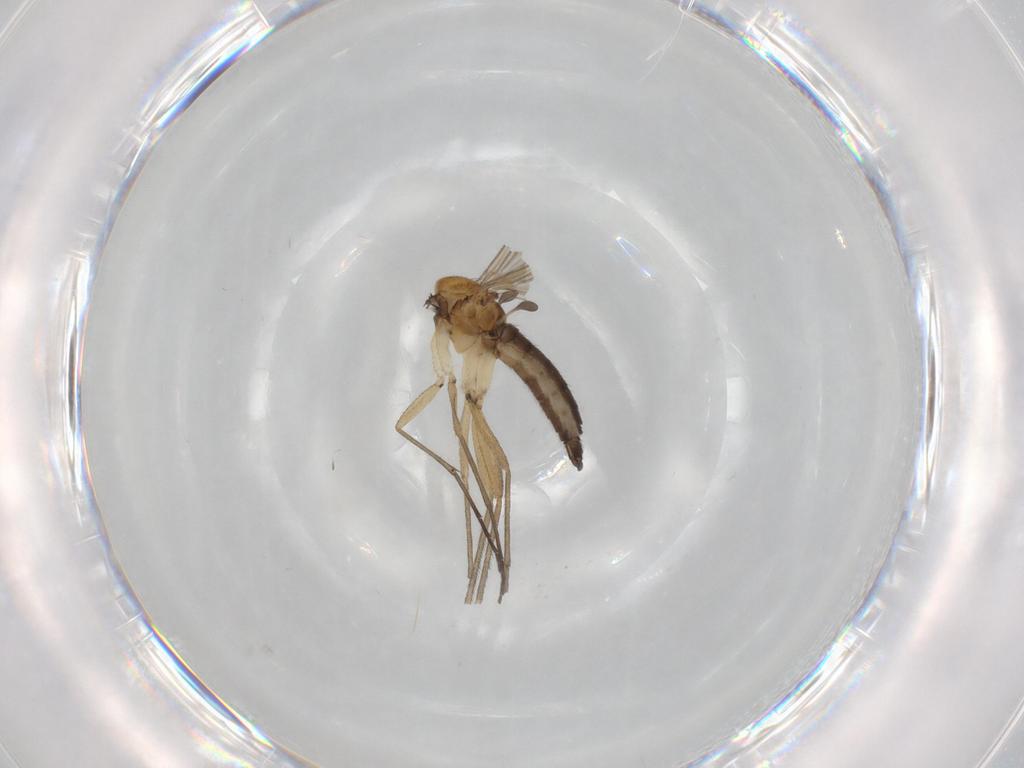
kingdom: Animalia
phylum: Arthropoda
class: Insecta
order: Diptera
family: Sciaridae
